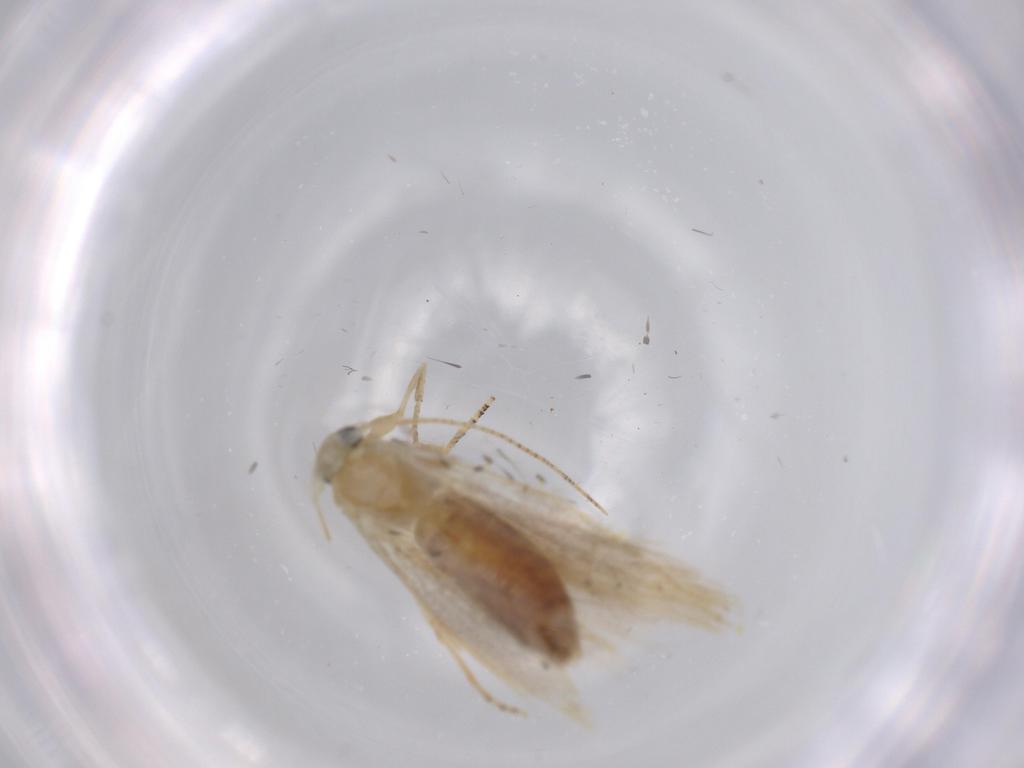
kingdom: Animalia
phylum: Arthropoda
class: Insecta
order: Lepidoptera
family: Bucculatricidae
